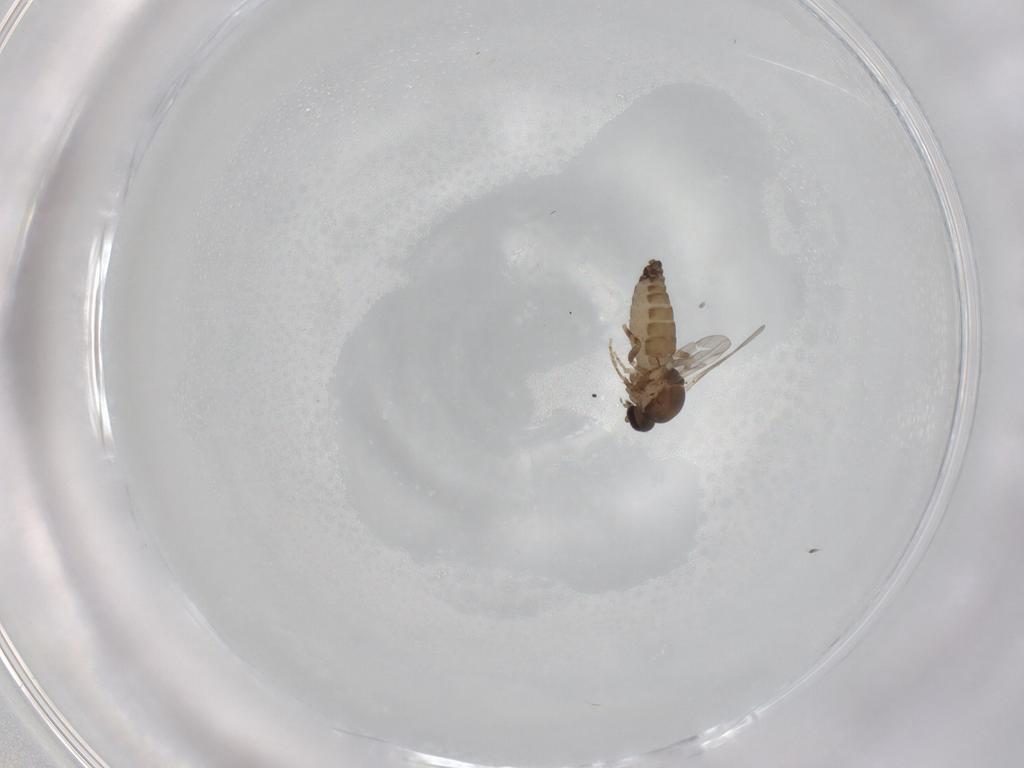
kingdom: Animalia
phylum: Arthropoda
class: Insecta
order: Diptera
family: Ceratopogonidae
